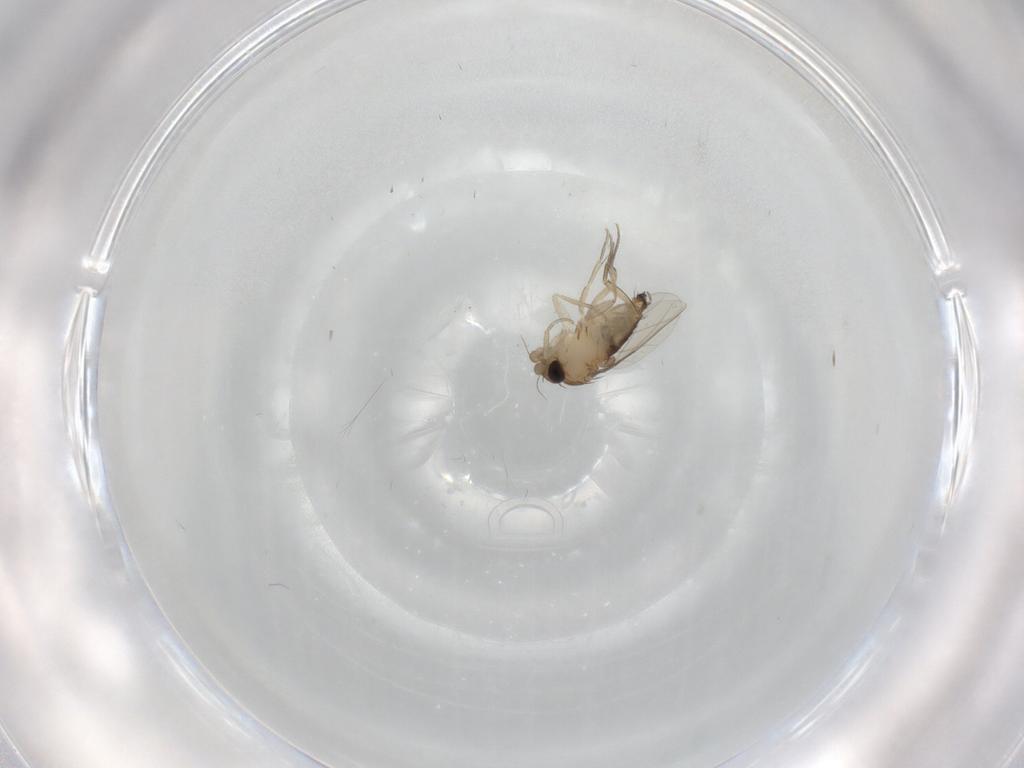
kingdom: Animalia
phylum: Arthropoda
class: Insecta
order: Diptera
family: Phoridae
